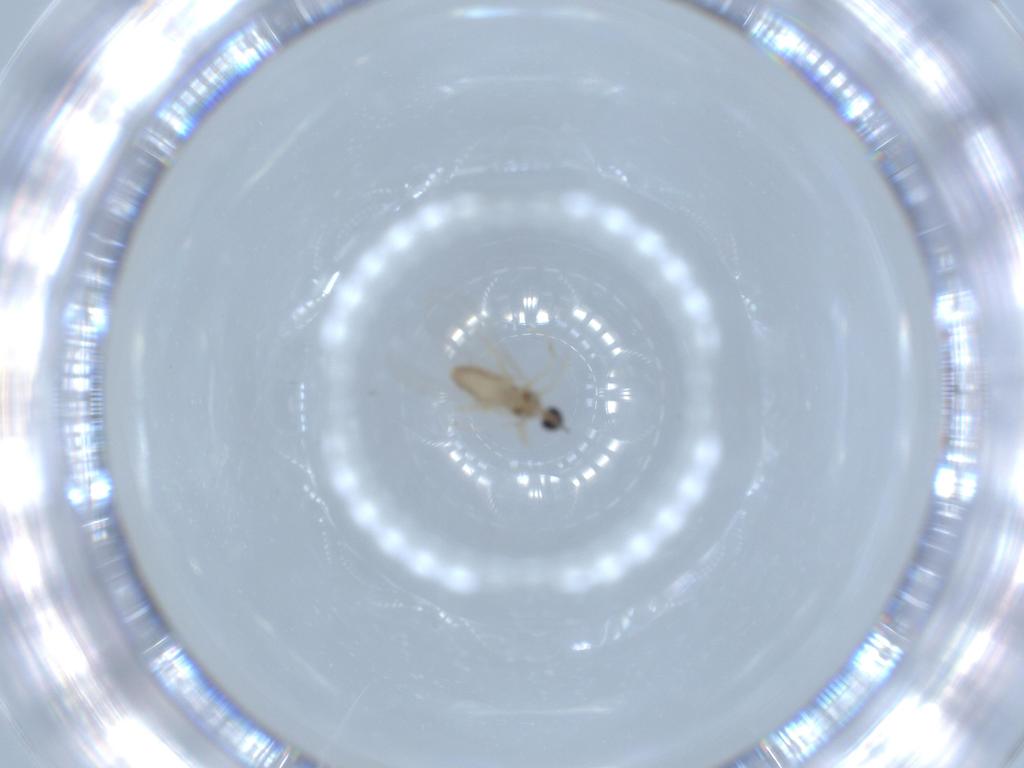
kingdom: Animalia
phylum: Arthropoda
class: Insecta
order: Diptera
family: Cecidomyiidae
